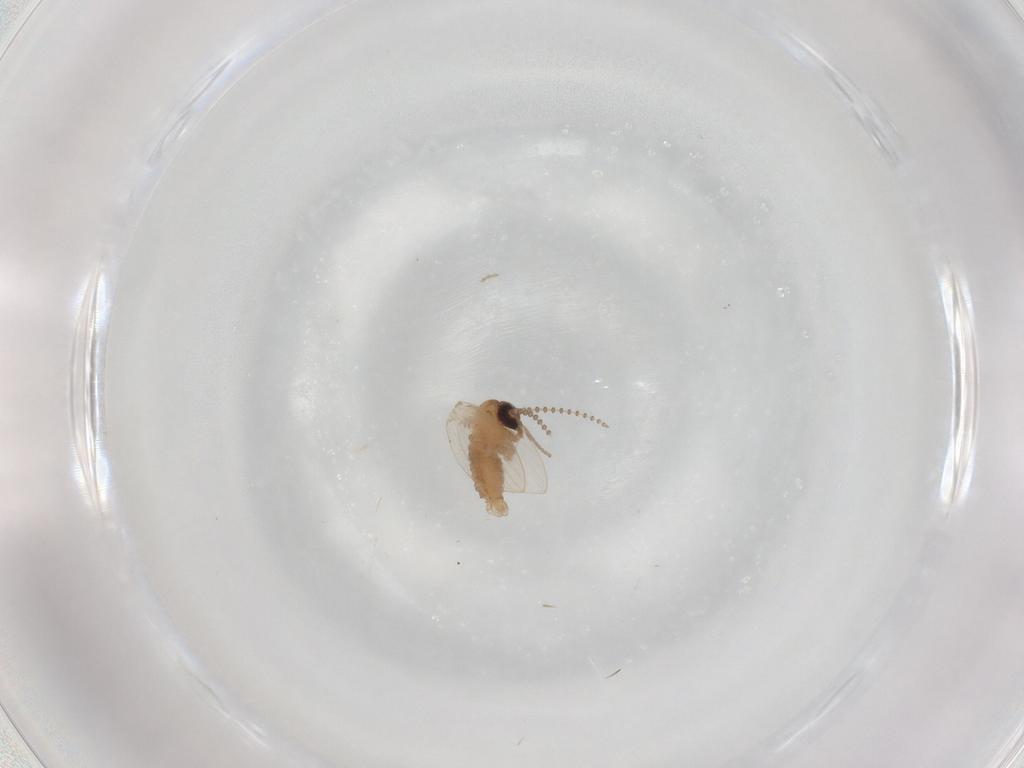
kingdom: Animalia
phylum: Arthropoda
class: Insecta
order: Diptera
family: Psychodidae
